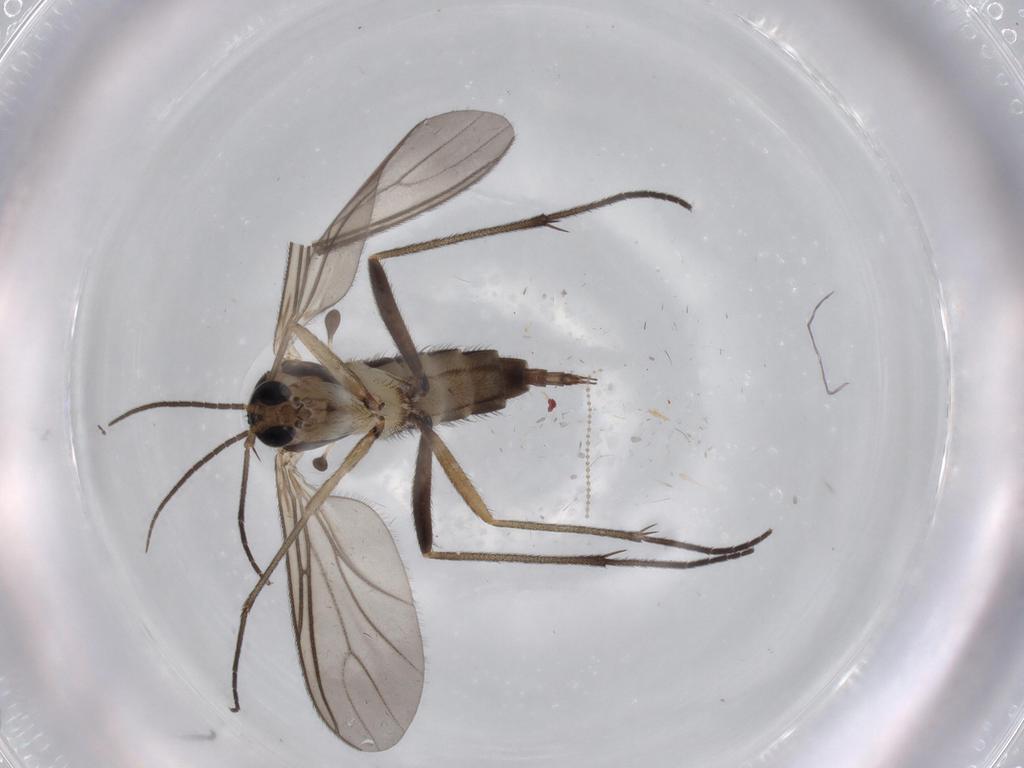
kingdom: Animalia
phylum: Arthropoda
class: Insecta
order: Diptera
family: Sciaridae
